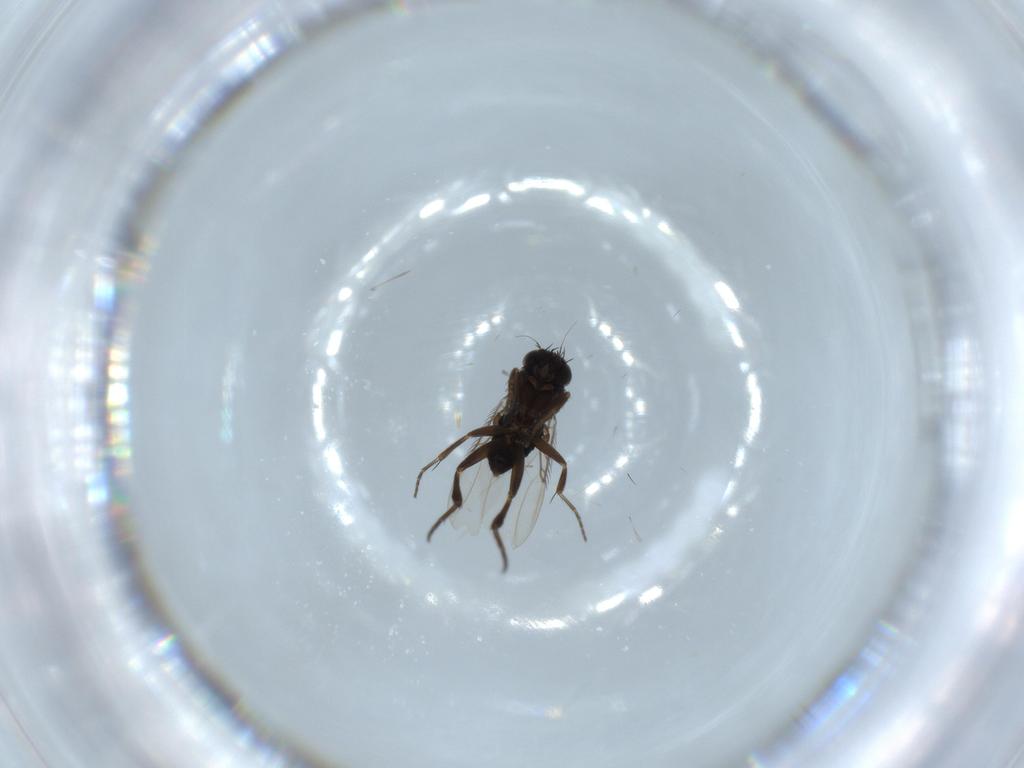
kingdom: Animalia
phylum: Arthropoda
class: Insecta
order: Diptera
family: Phoridae
